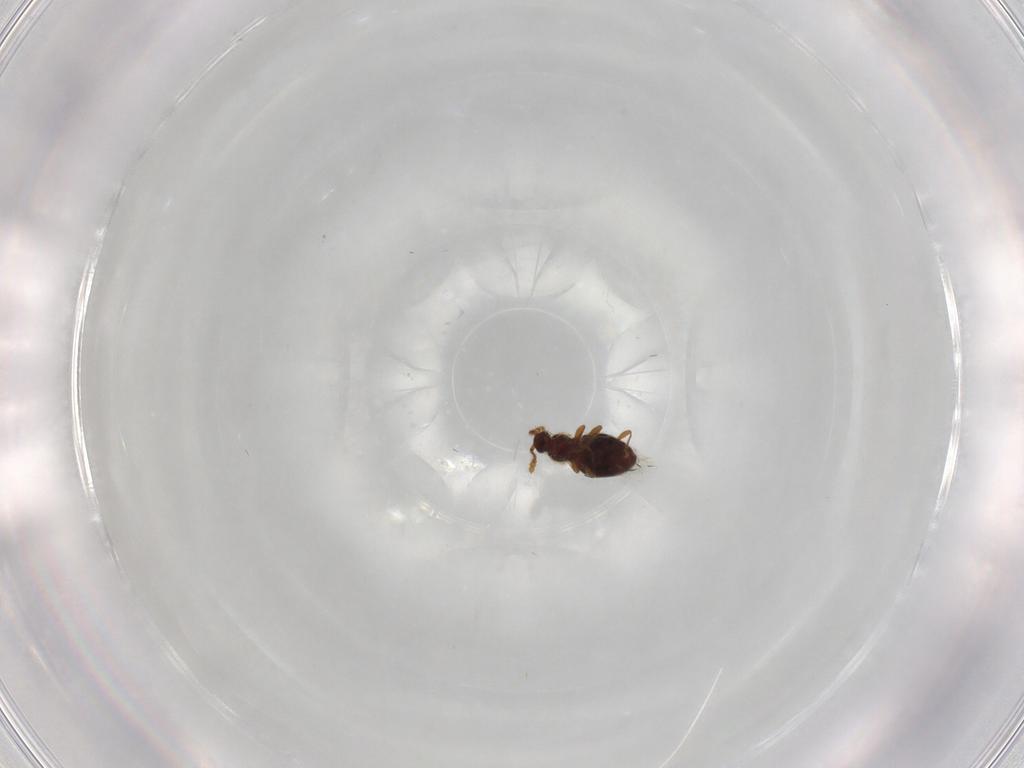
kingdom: Animalia
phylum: Arthropoda
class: Insecta
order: Coleoptera
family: Staphylinidae
